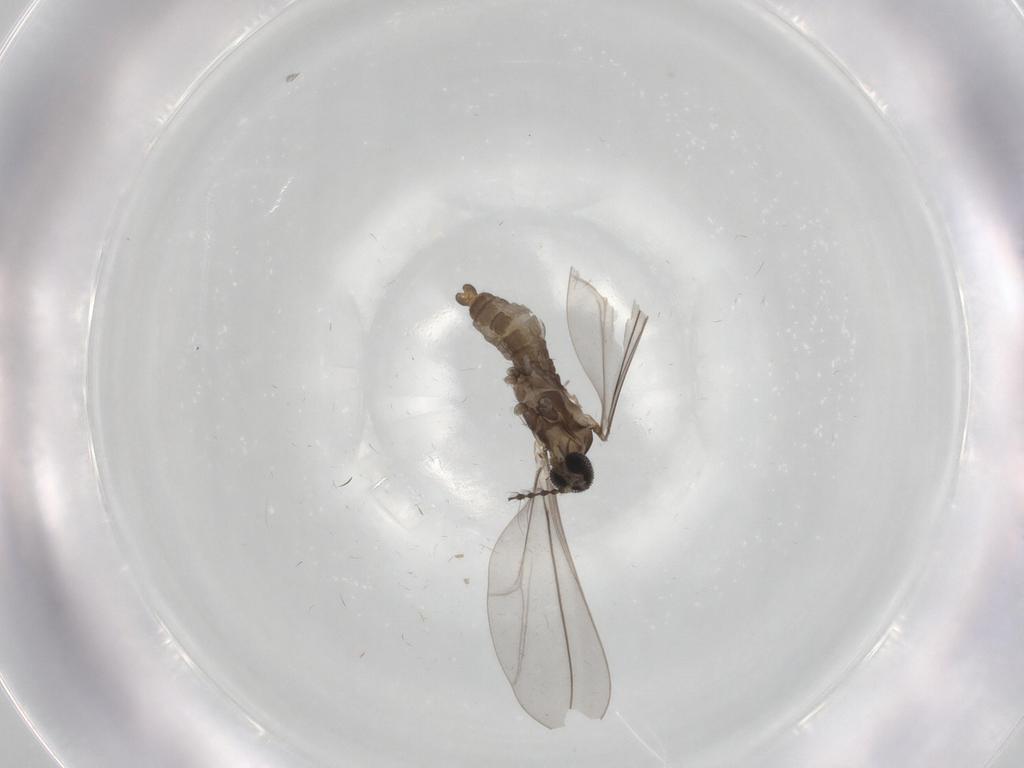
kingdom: Animalia
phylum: Arthropoda
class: Insecta
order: Diptera
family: Cecidomyiidae
